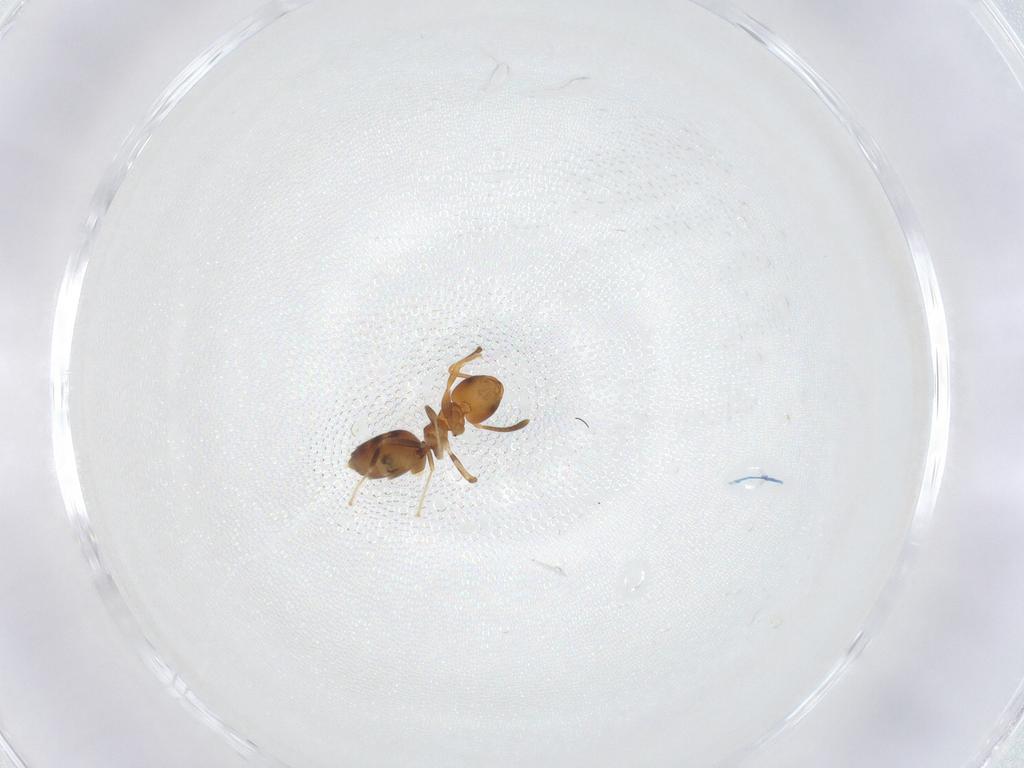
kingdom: Animalia
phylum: Arthropoda
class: Insecta
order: Hymenoptera
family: Formicidae
